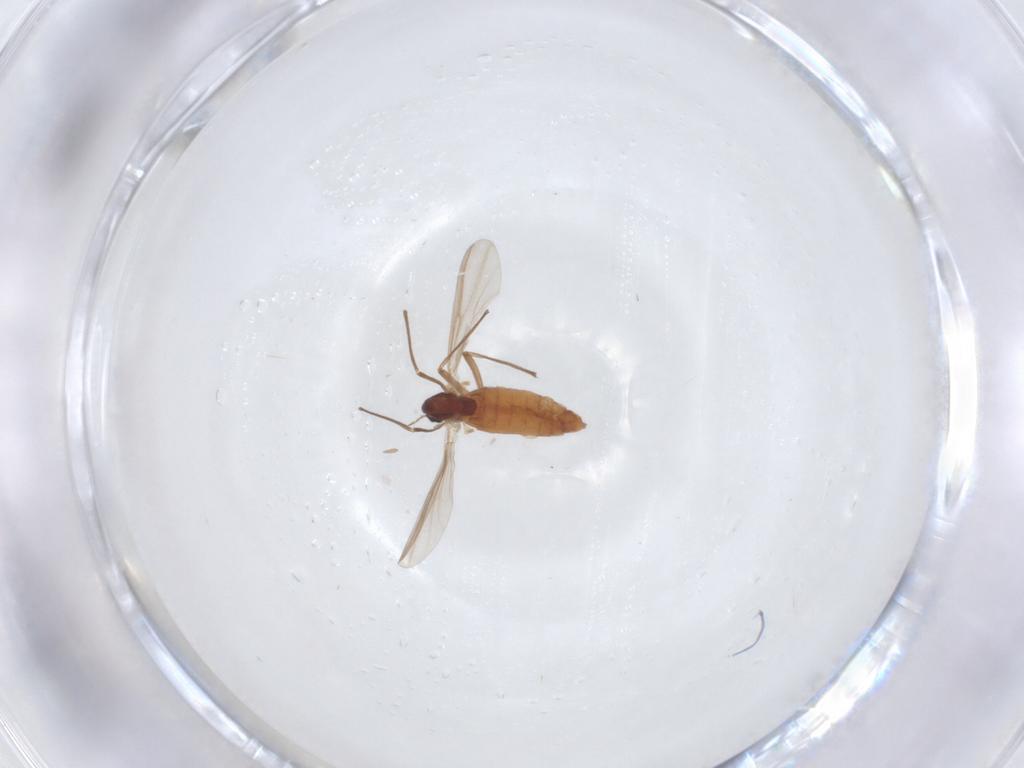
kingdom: Animalia
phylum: Arthropoda
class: Insecta
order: Diptera
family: Chironomidae
